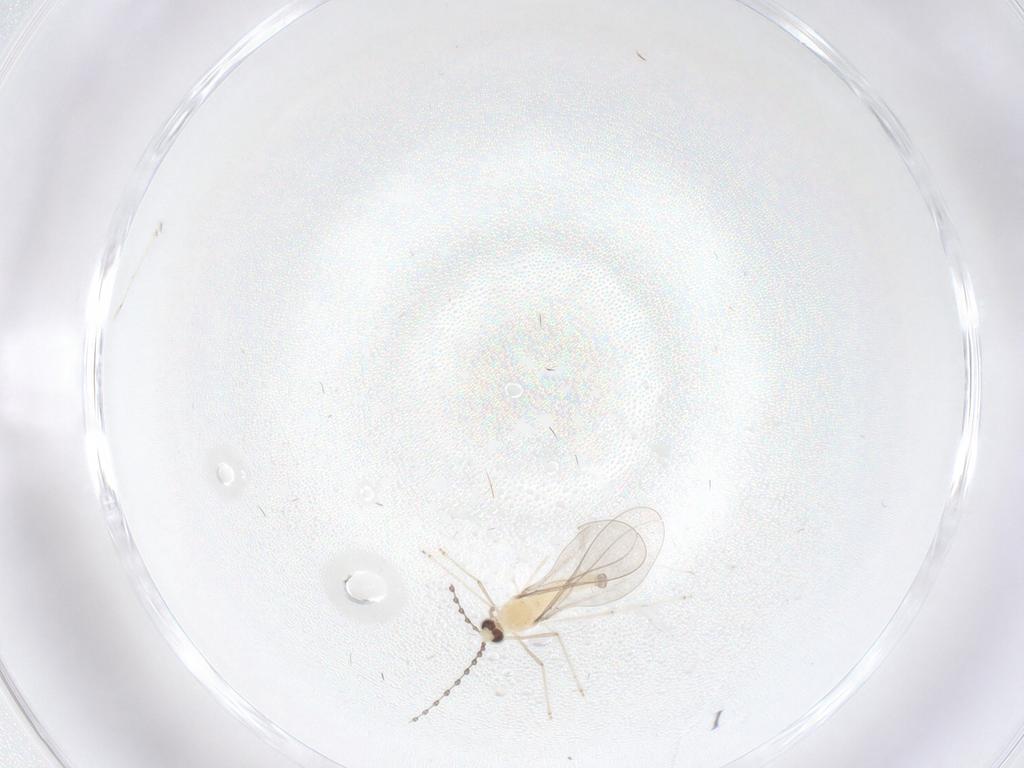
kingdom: Animalia
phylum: Arthropoda
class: Insecta
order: Diptera
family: Cecidomyiidae
